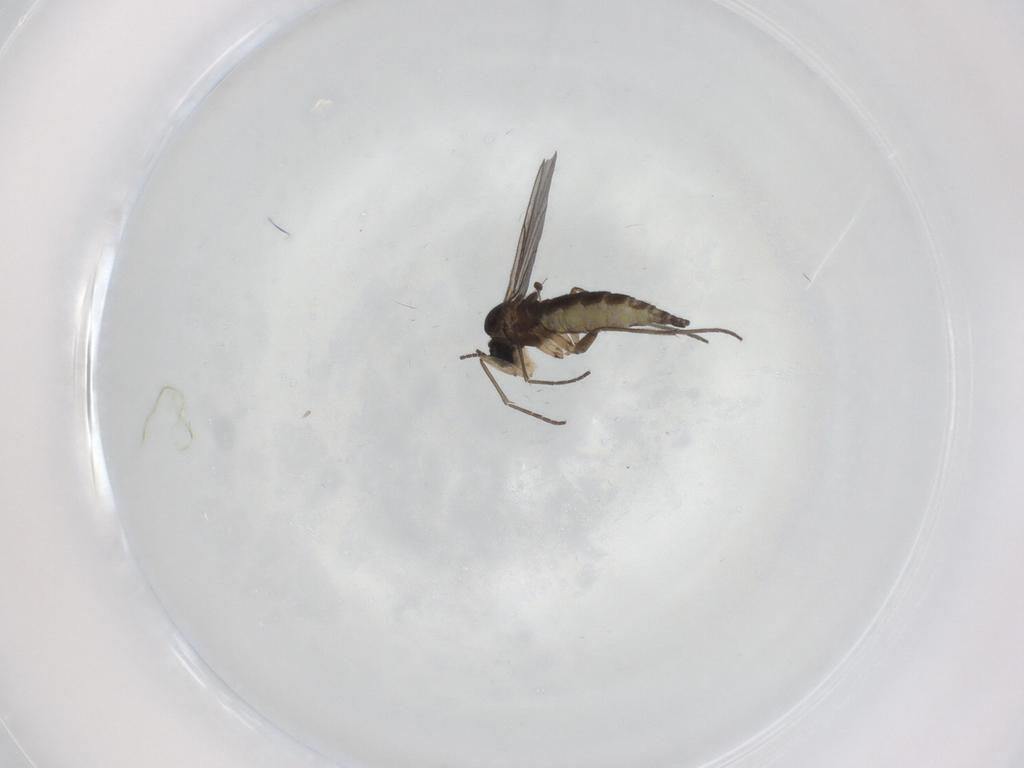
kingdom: Animalia
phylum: Arthropoda
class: Insecta
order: Diptera
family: Sciaridae
